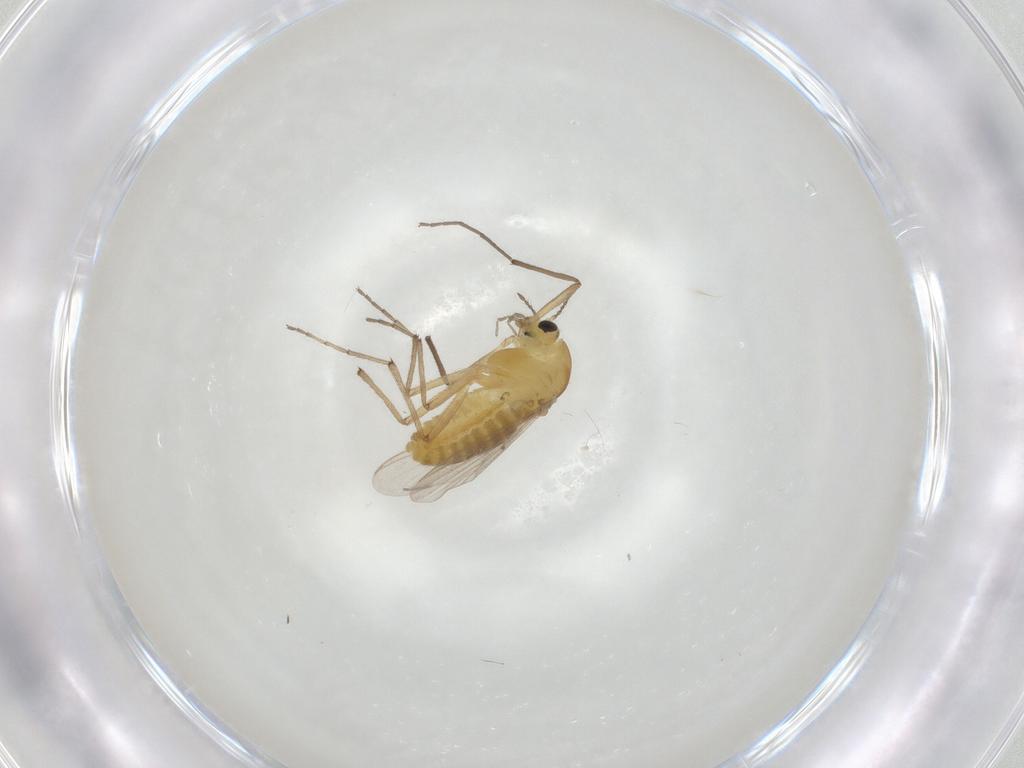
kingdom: Animalia
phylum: Arthropoda
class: Insecta
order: Diptera
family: Chironomidae
